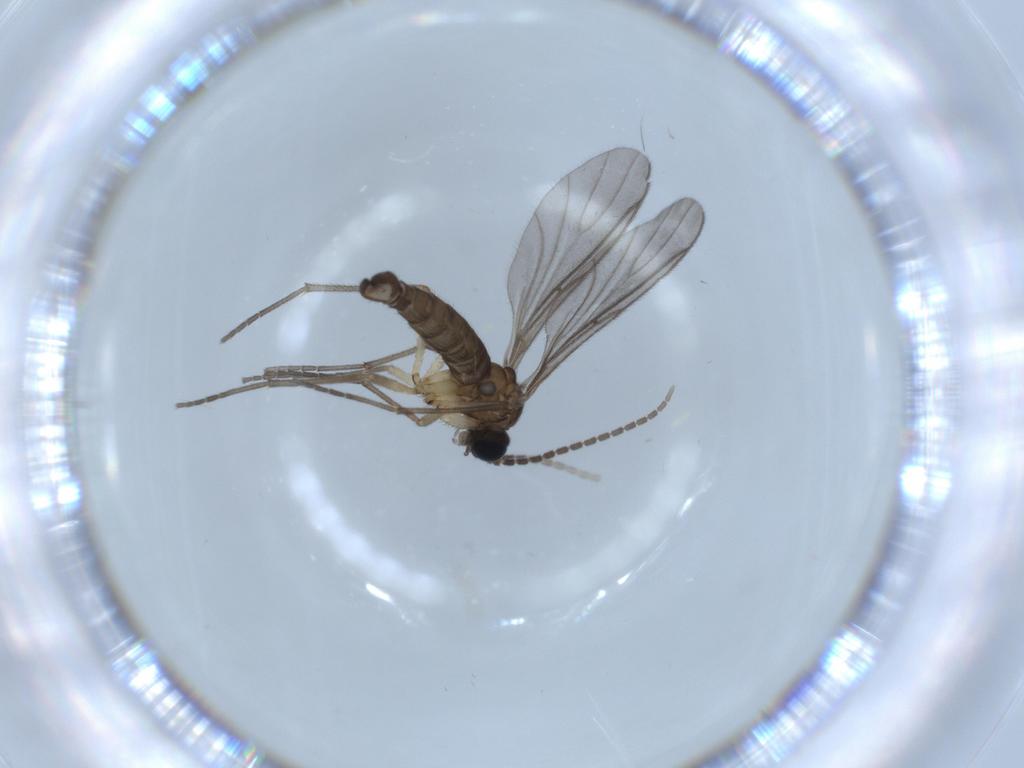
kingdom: Animalia
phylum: Arthropoda
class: Insecta
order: Diptera
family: Sciaridae
